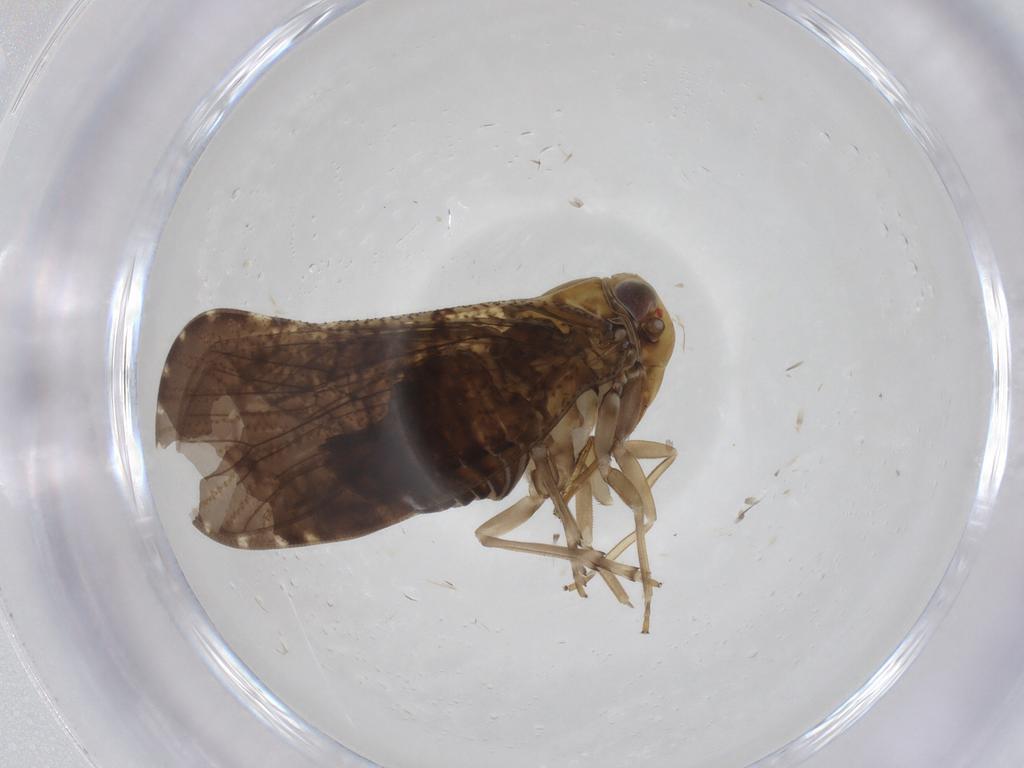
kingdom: Animalia
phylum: Arthropoda
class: Insecta
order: Hemiptera
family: Cixiidae
